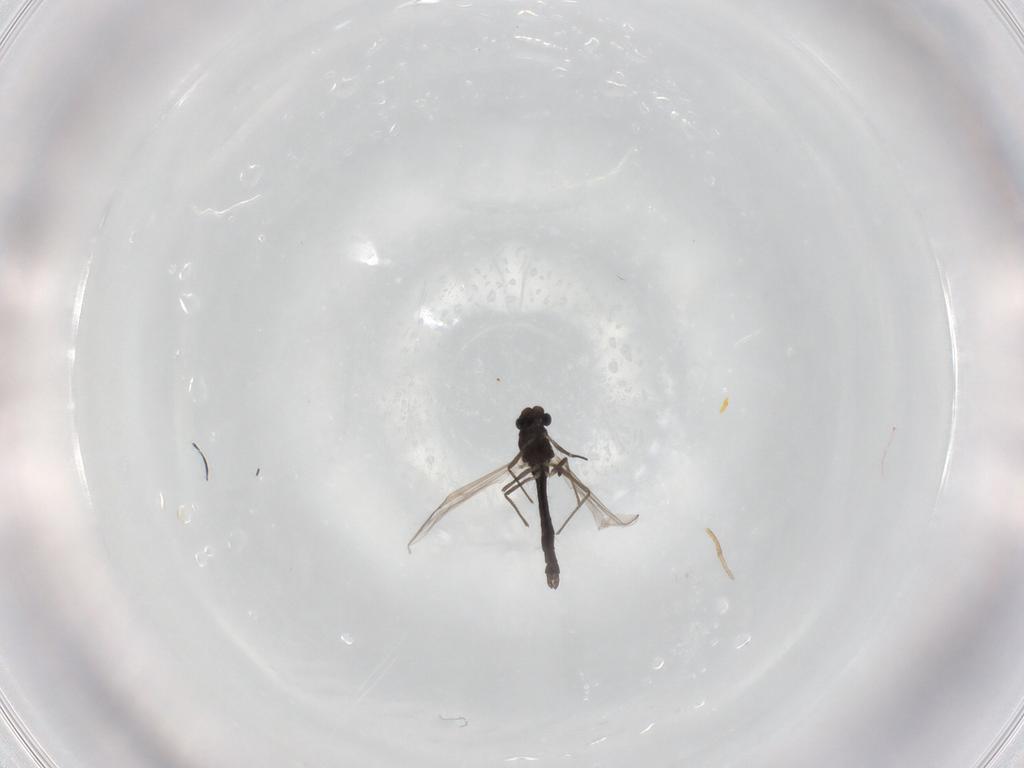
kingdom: Animalia
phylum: Arthropoda
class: Insecta
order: Diptera
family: Chironomidae
